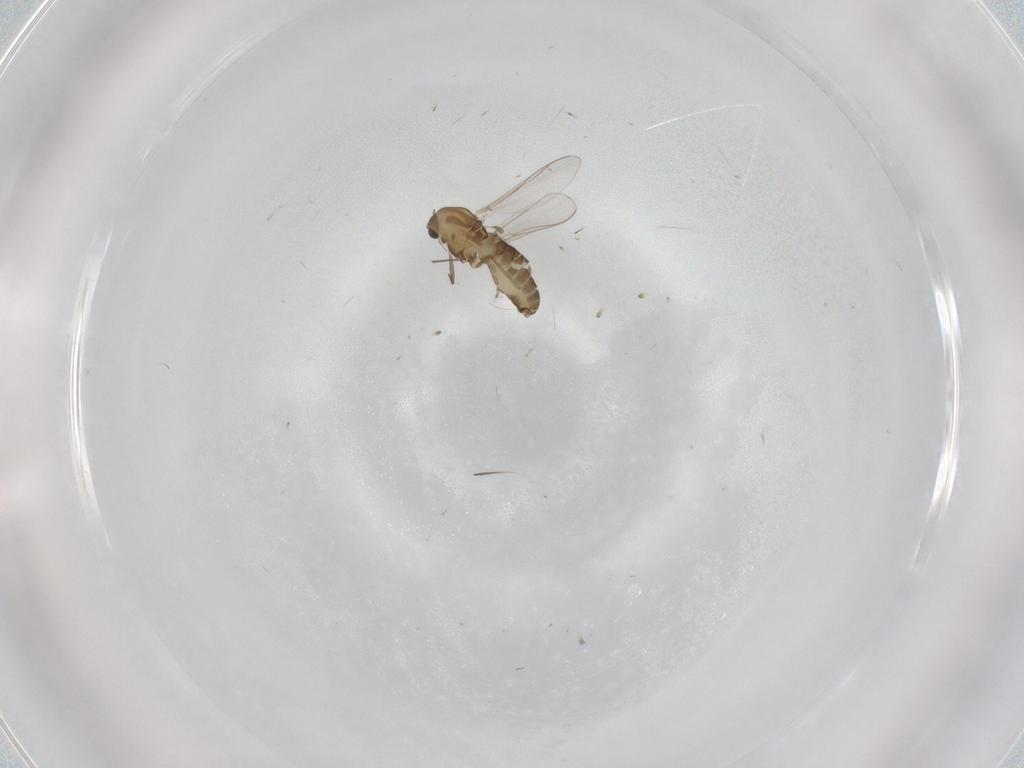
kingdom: Animalia
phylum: Arthropoda
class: Insecta
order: Diptera
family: Chironomidae
